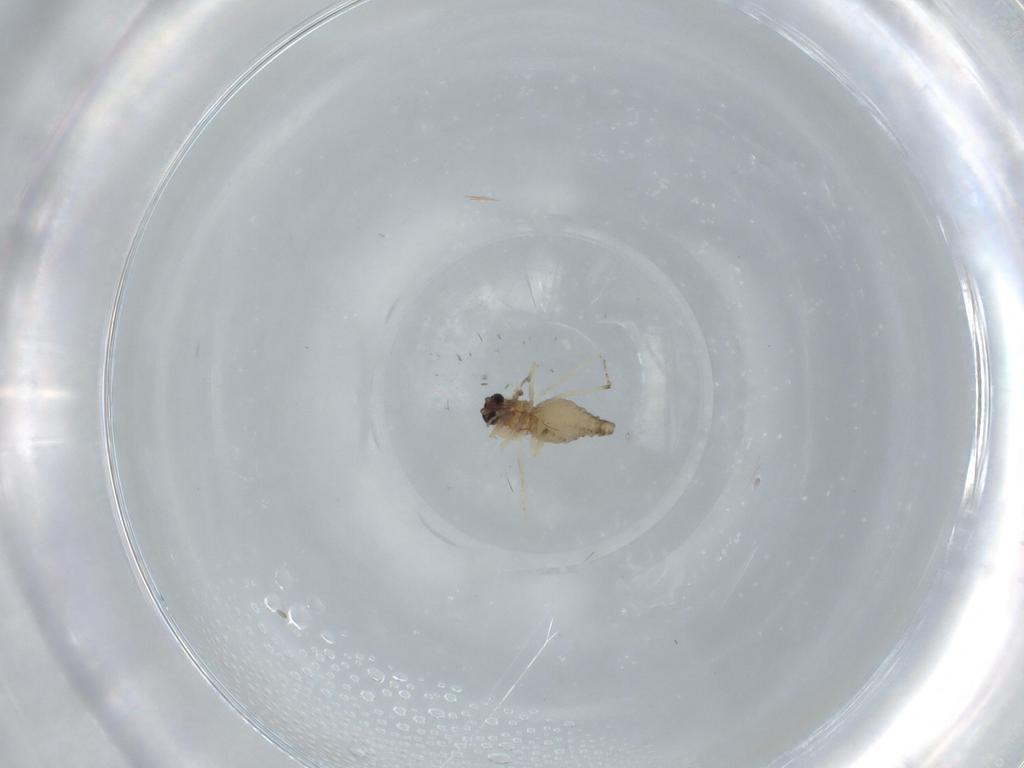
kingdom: Animalia
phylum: Arthropoda
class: Insecta
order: Diptera
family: Ceratopogonidae
